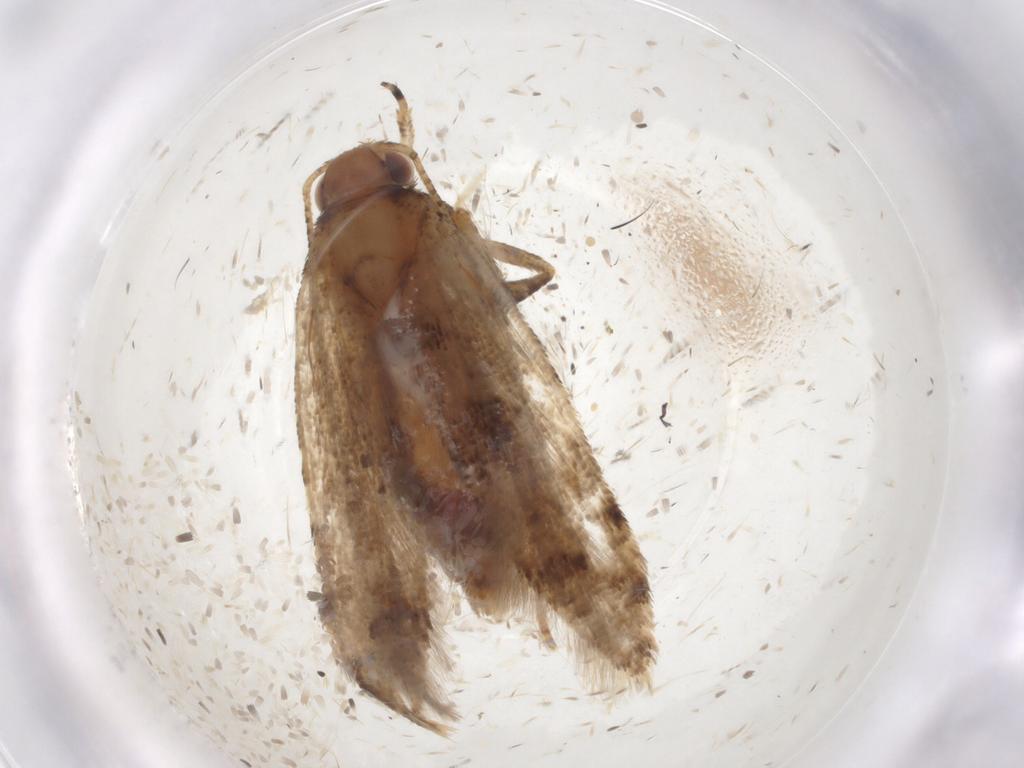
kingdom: Animalia
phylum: Arthropoda
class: Insecta
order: Lepidoptera
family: Gelechiidae
